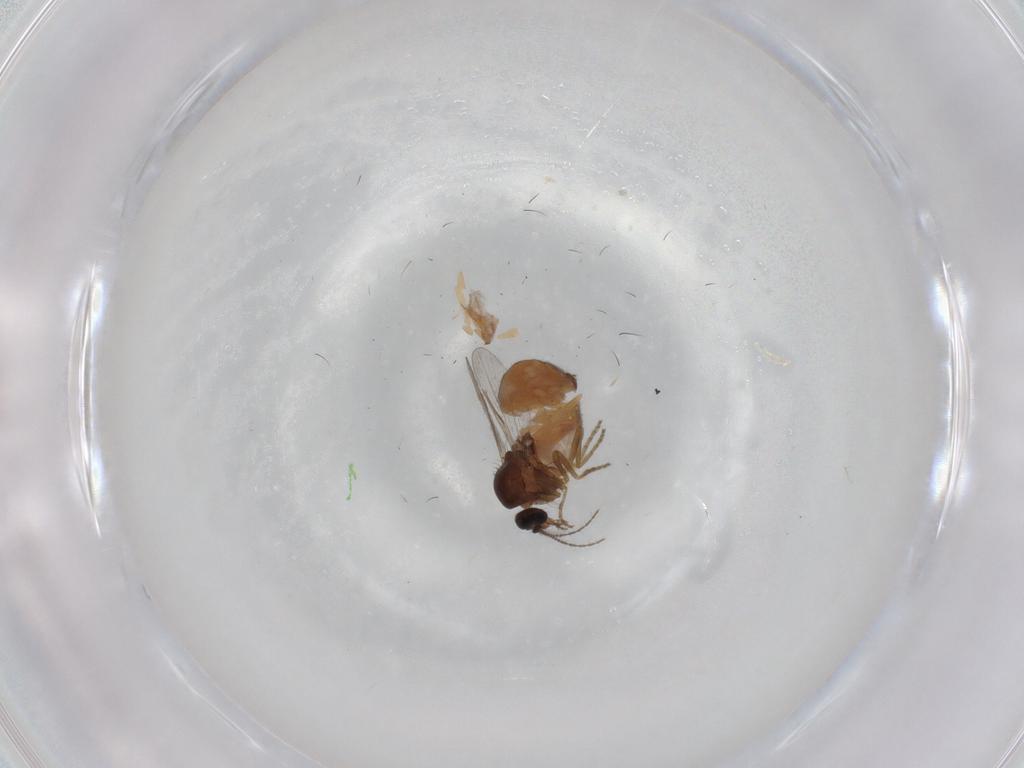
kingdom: Animalia
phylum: Arthropoda
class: Insecta
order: Diptera
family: Ceratopogonidae
